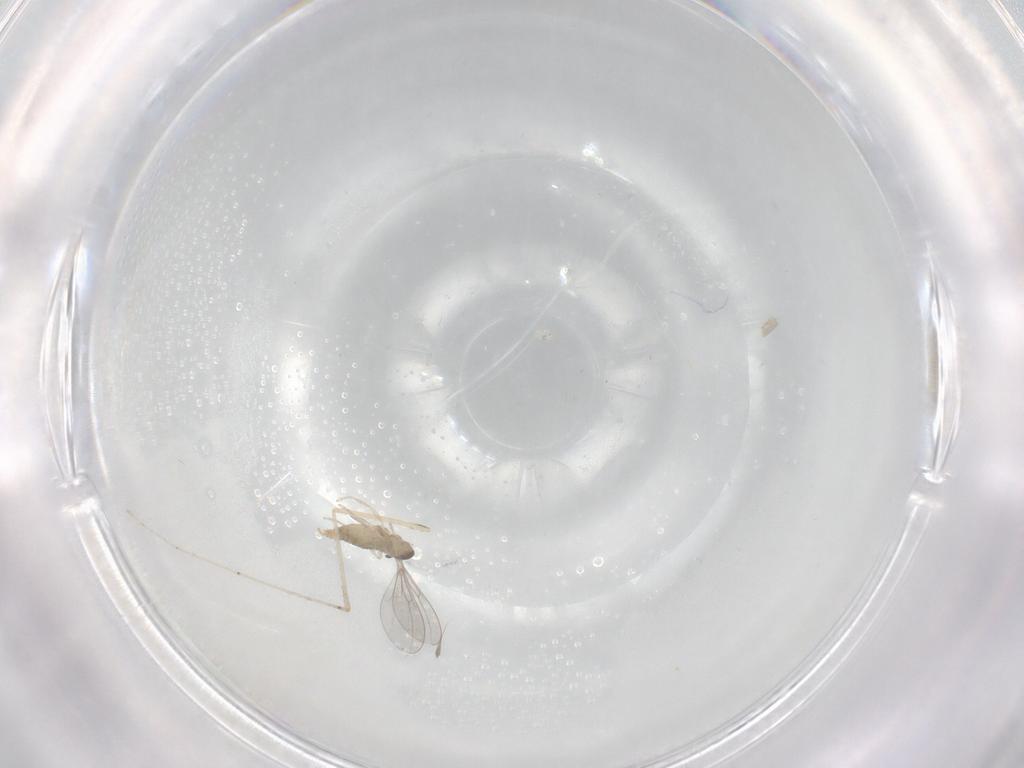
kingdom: Animalia
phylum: Arthropoda
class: Insecta
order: Diptera
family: Cecidomyiidae
